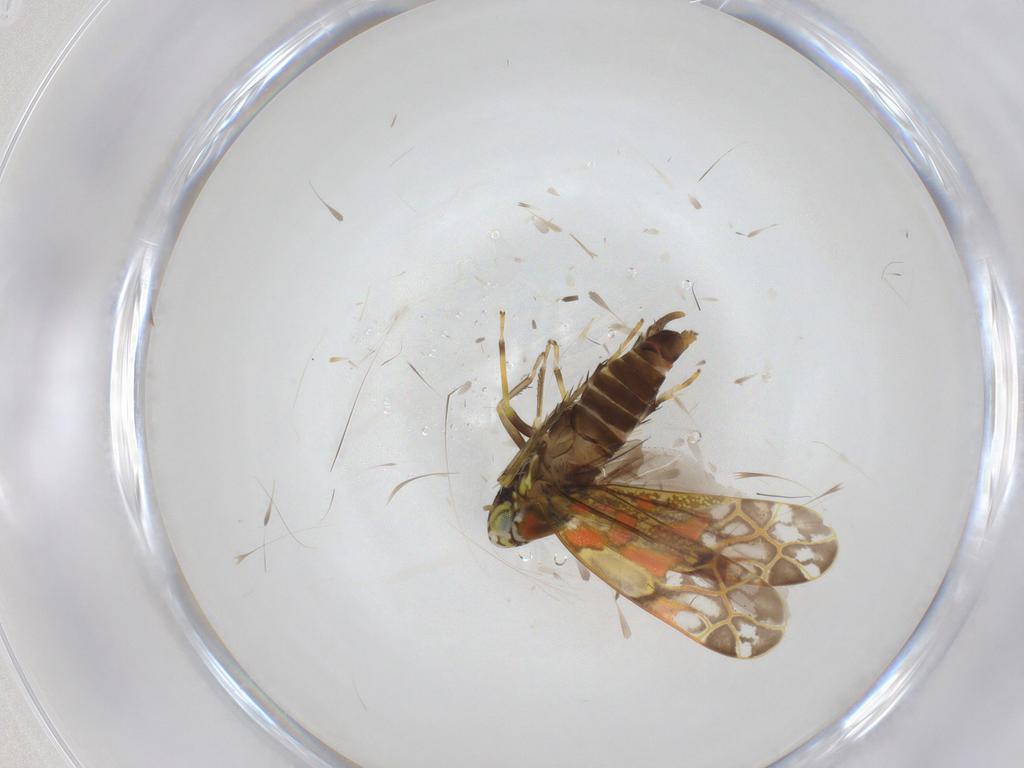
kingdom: Animalia
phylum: Arthropoda
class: Insecta
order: Hemiptera
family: Cicadellidae
